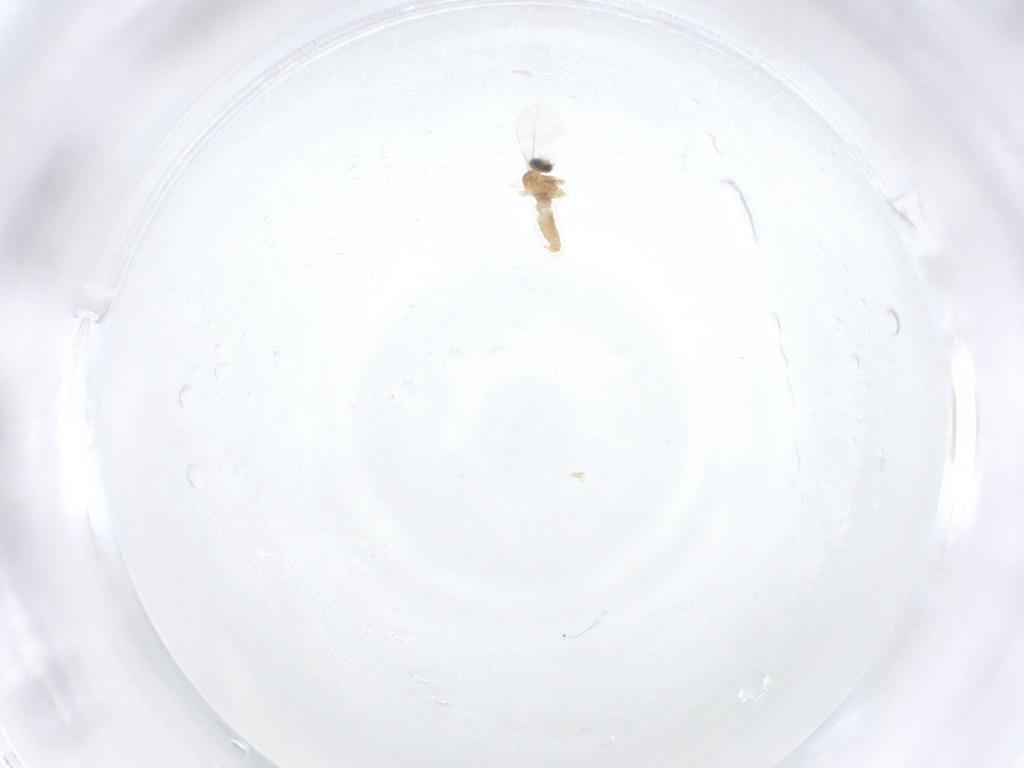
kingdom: Animalia
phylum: Arthropoda
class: Insecta
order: Diptera
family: Cecidomyiidae
